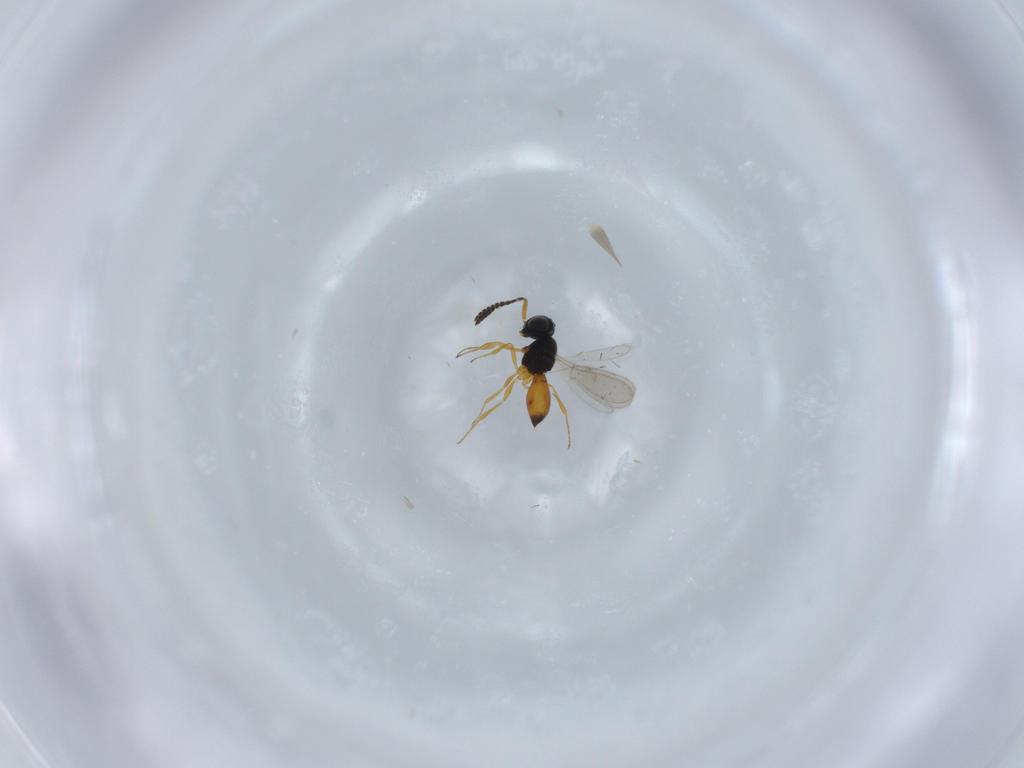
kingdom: Animalia
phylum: Arthropoda
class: Insecta
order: Hymenoptera
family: Scelionidae
